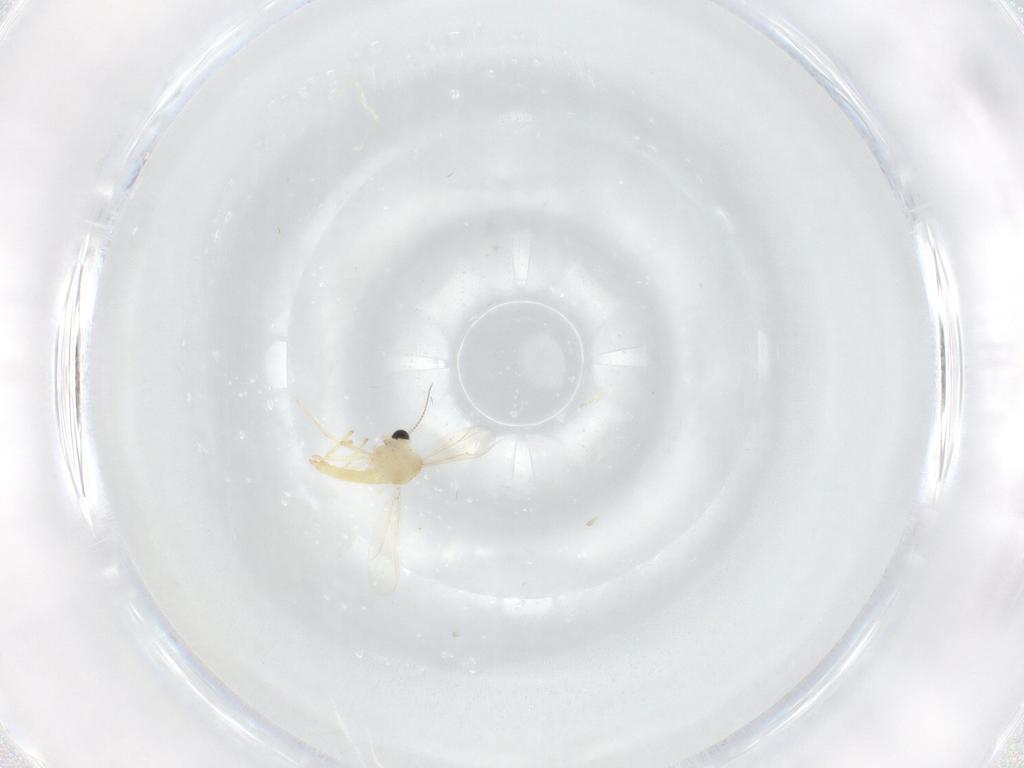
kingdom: Animalia
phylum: Arthropoda
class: Insecta
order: Diptera
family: Chironomidae
